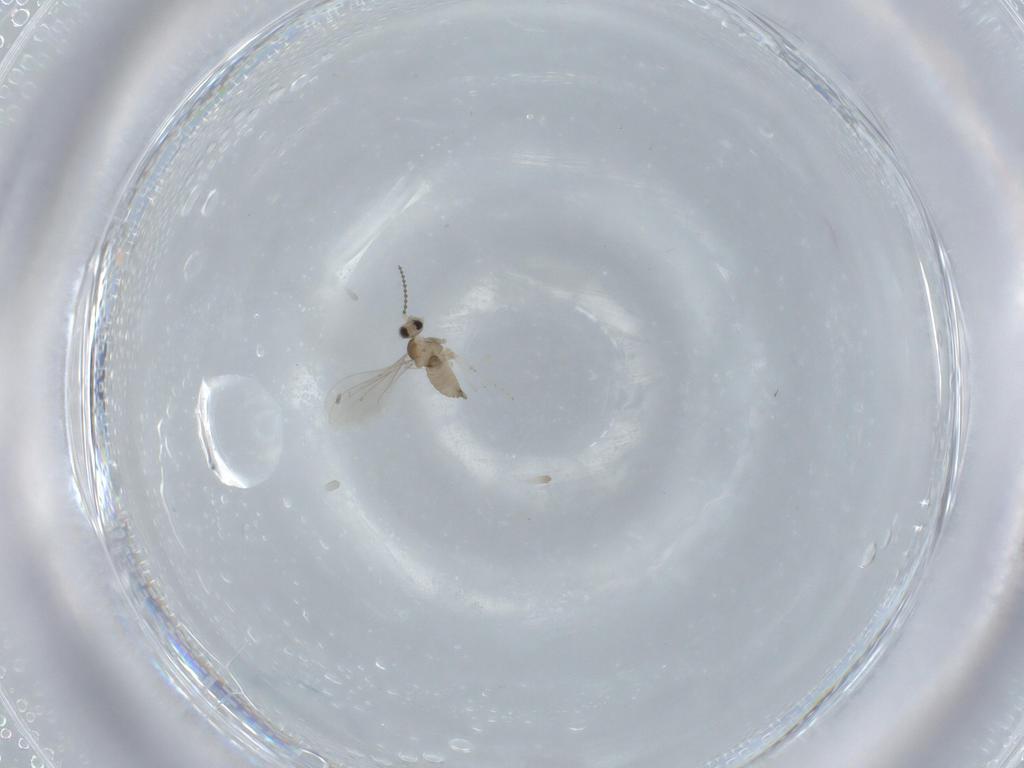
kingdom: Animalia
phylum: Arthropoda
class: Insecta
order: Diptera
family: Cecidomyiidae
